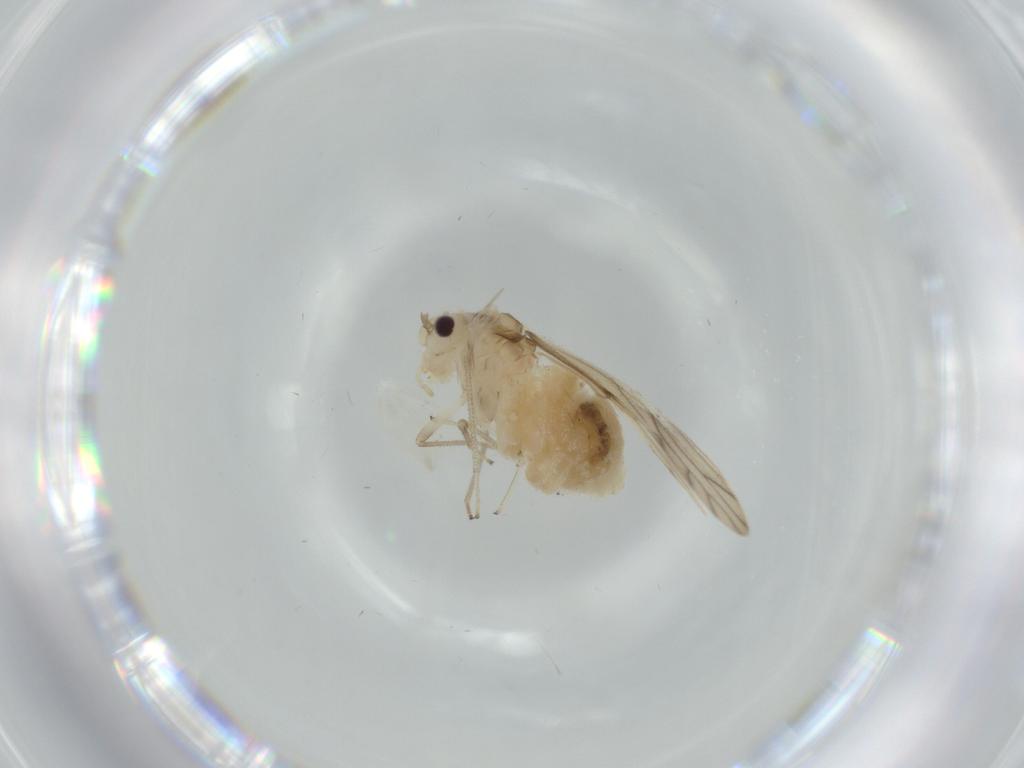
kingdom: Animalia
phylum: Arthropoda
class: Insecta
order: Psocodea
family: Caeciliusidae
